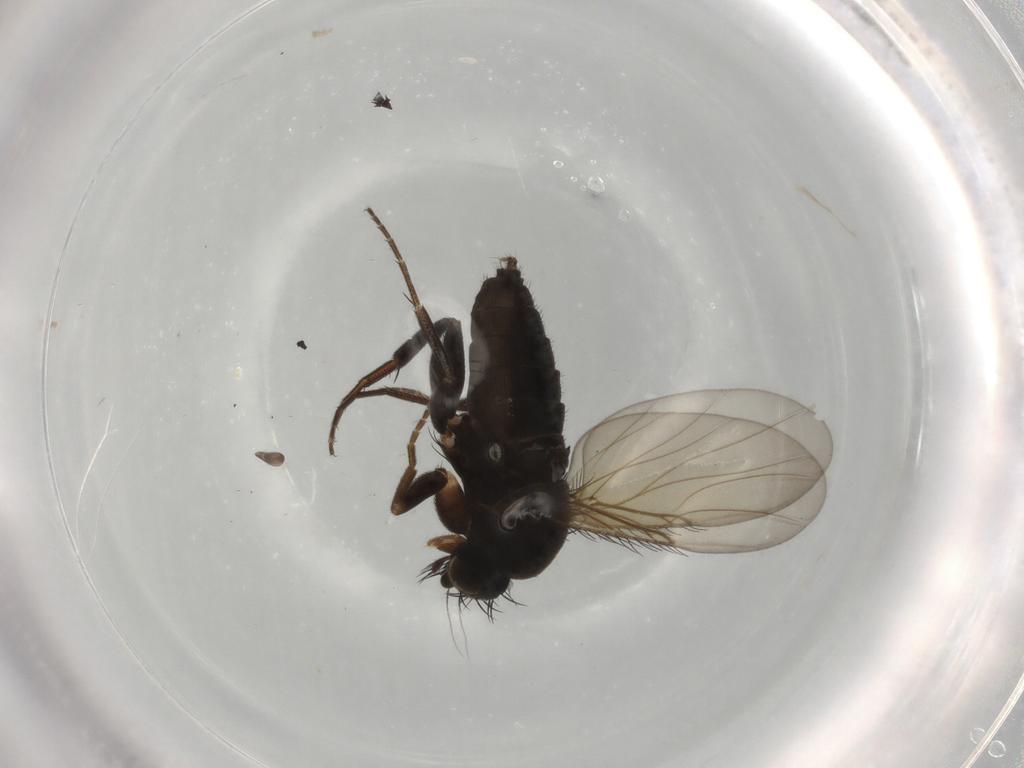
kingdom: Animalia
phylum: Arthropoda
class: Insecta
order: Diptera
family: Phoridae
